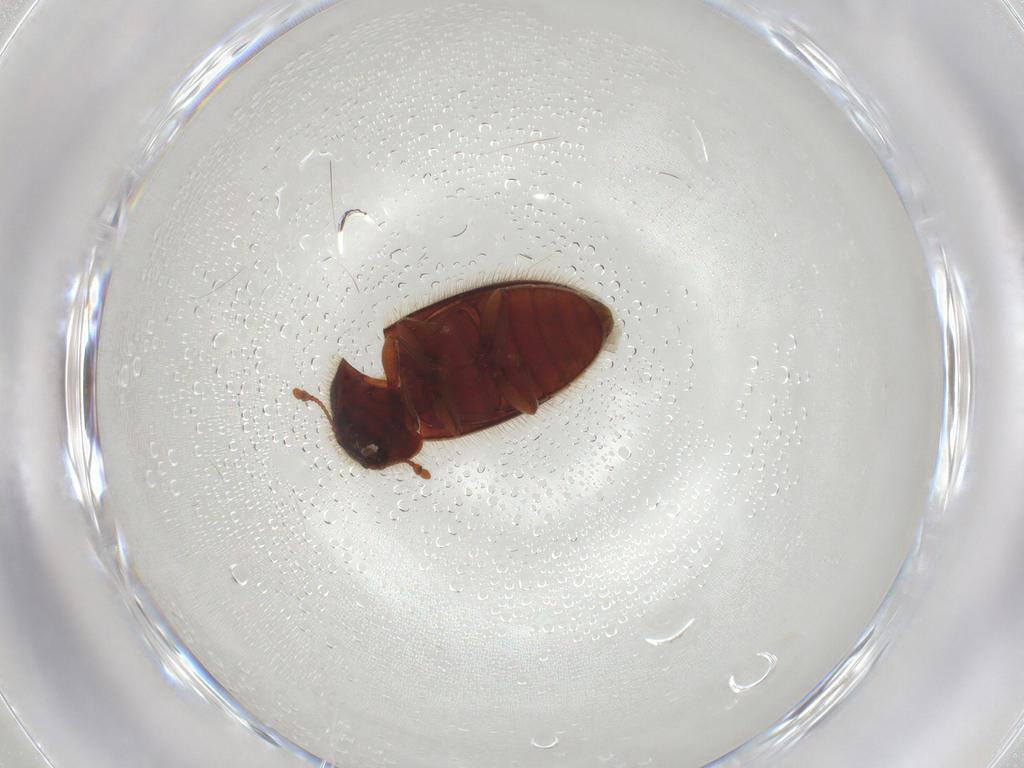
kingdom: Animalia
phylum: Arthropoda
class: Insecta
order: Coleoptera
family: Biphyllidae
